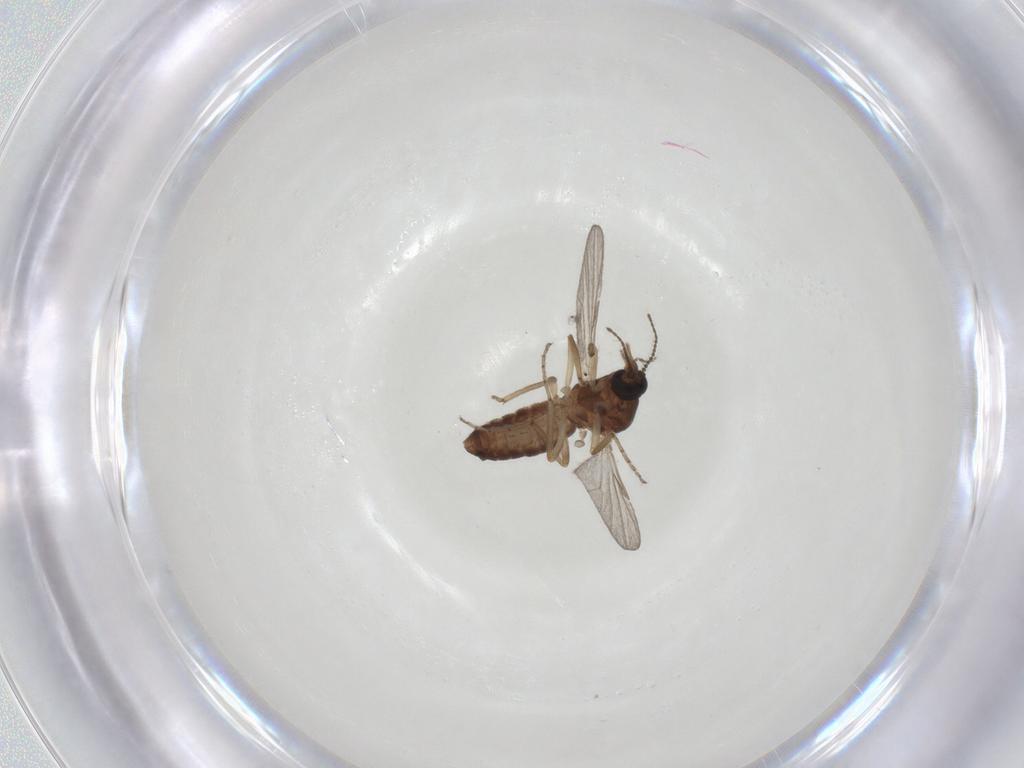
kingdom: Animalia
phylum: Arthropoda
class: Insecta
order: Diptera
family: Ceratopogonidae
